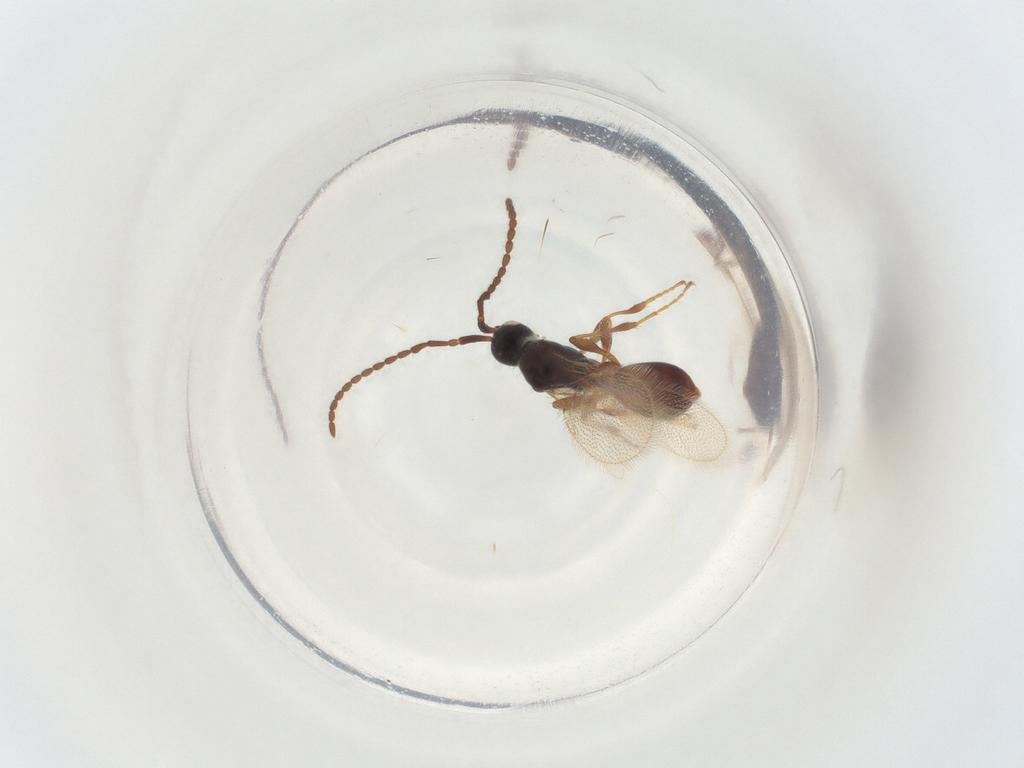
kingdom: Animalia
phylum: Arthropoda
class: Insecta
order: Hymenoptera
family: Diapriidae
